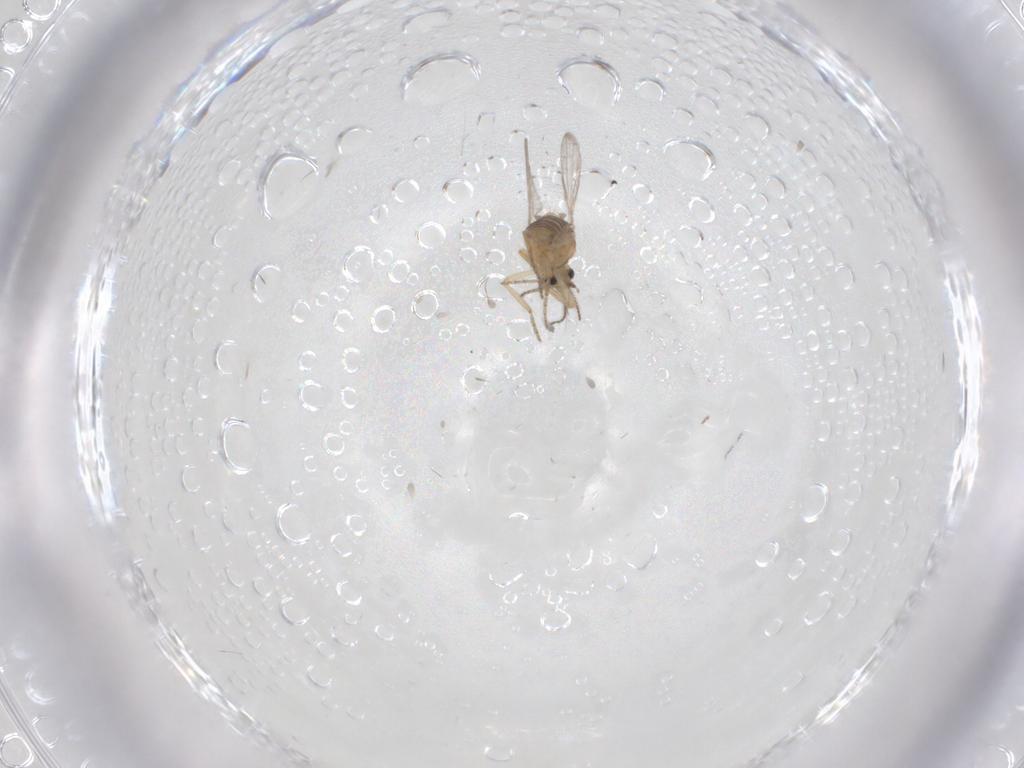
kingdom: Animalia
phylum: Arthropoda
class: Insecta
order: Diptera
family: Ceratopogonidae
